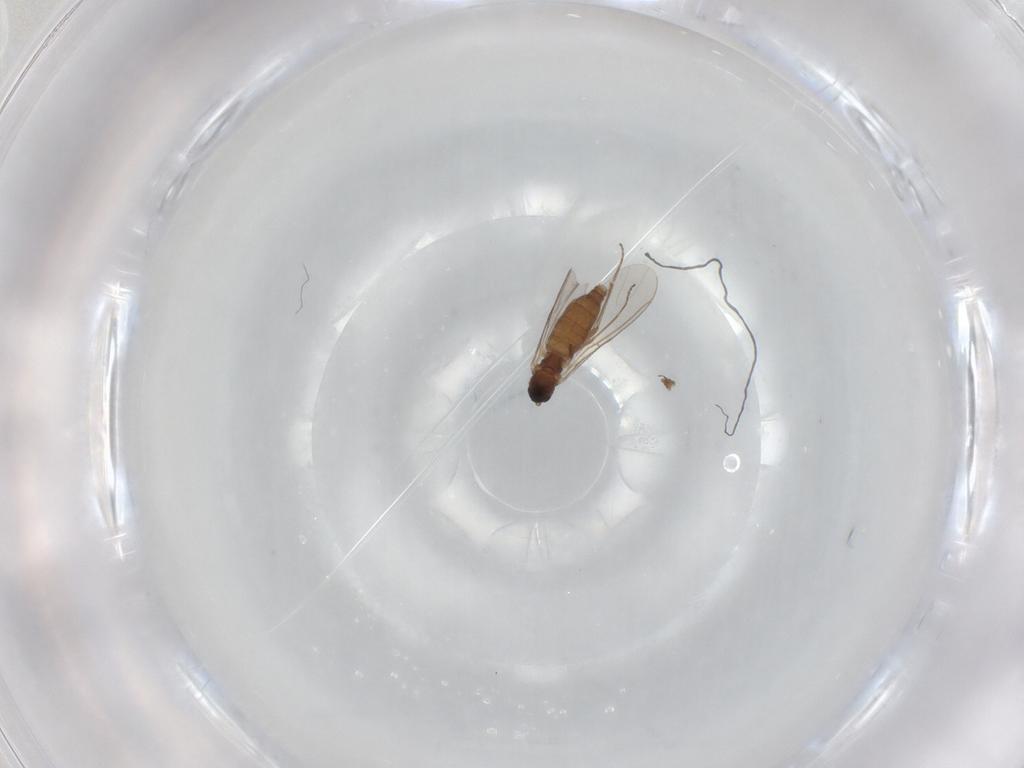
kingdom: Animalia
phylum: Arthropoda
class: Insecta
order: Diptera
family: Sciaridae
